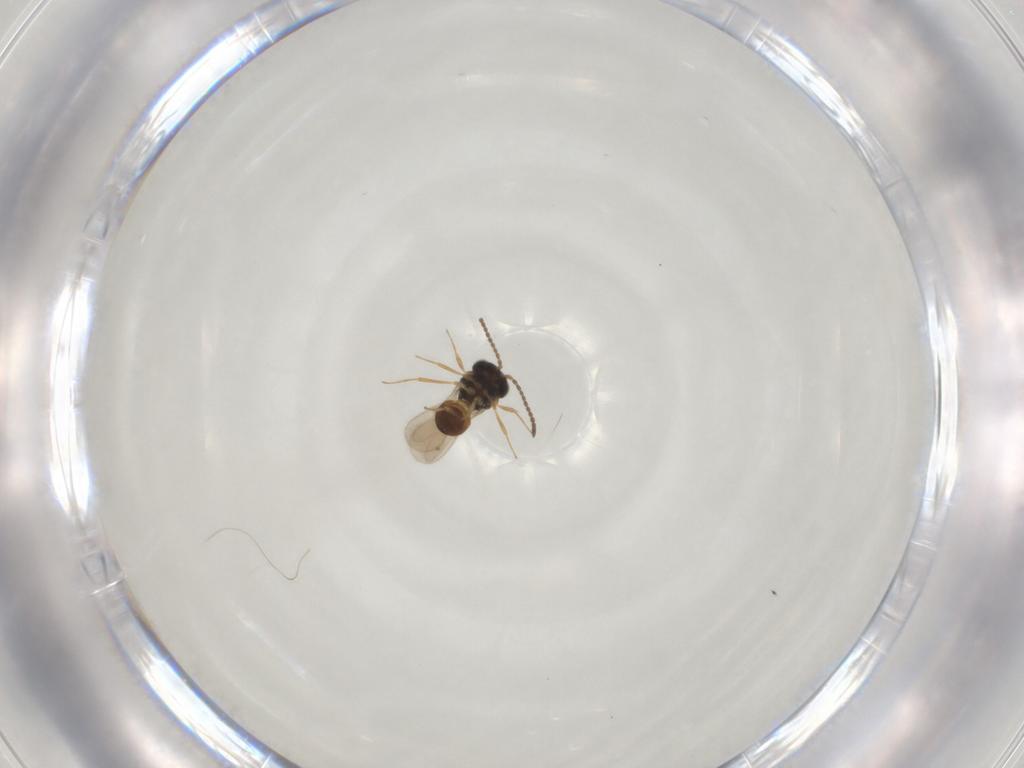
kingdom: Animalia
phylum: Arthropoda
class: Insecta
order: Hymenoptera
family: Scelionidae
